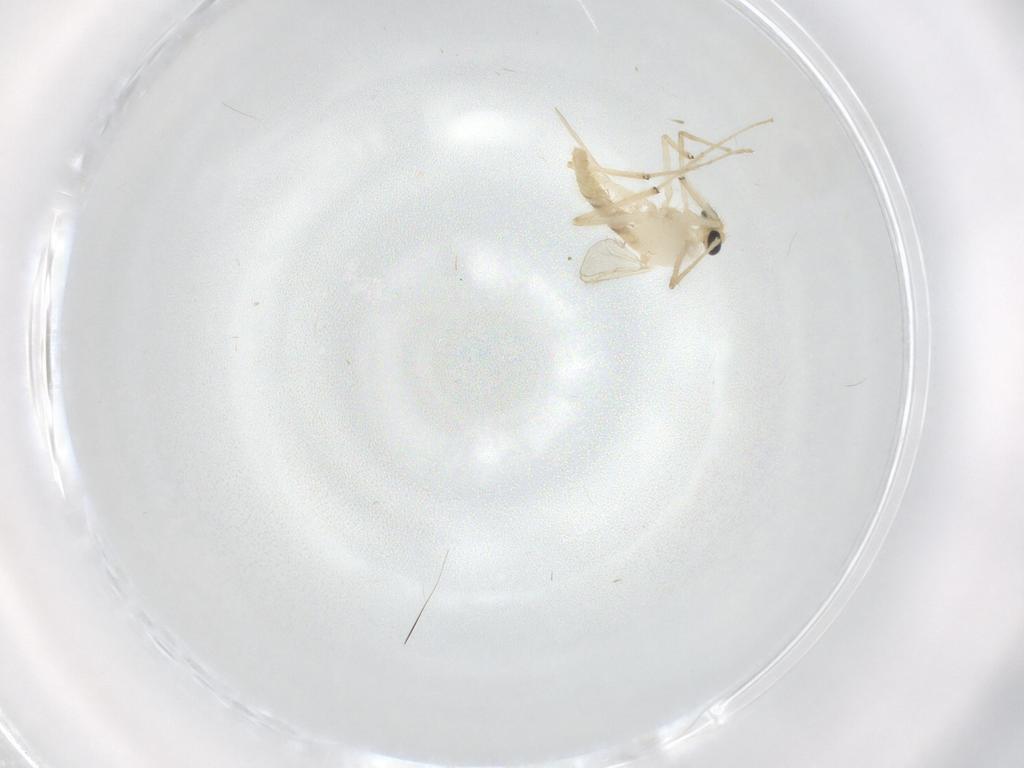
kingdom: Animalia
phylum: Arthropoda
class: Insecta
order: Diptera
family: Chironomidae
